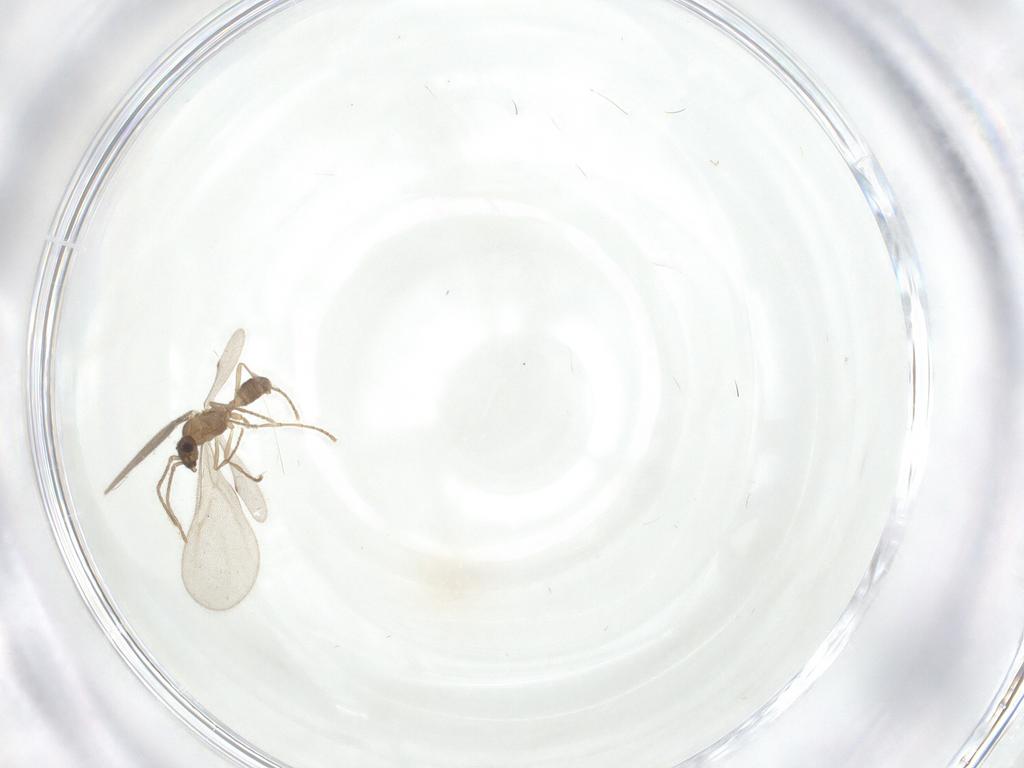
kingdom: Animalia
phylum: Arthropoda
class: Insecta
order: Hymenoptera
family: Formicidae
